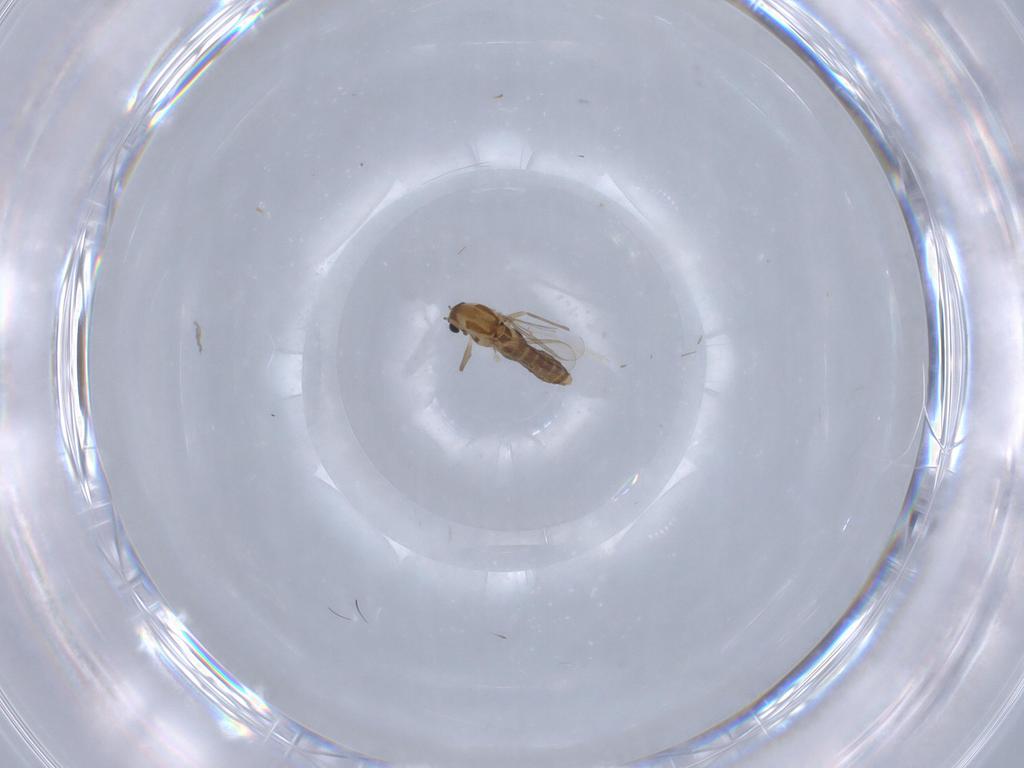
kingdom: Animalia
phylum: Arthropoda
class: Insecta
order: Diptera
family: Chironomidae
